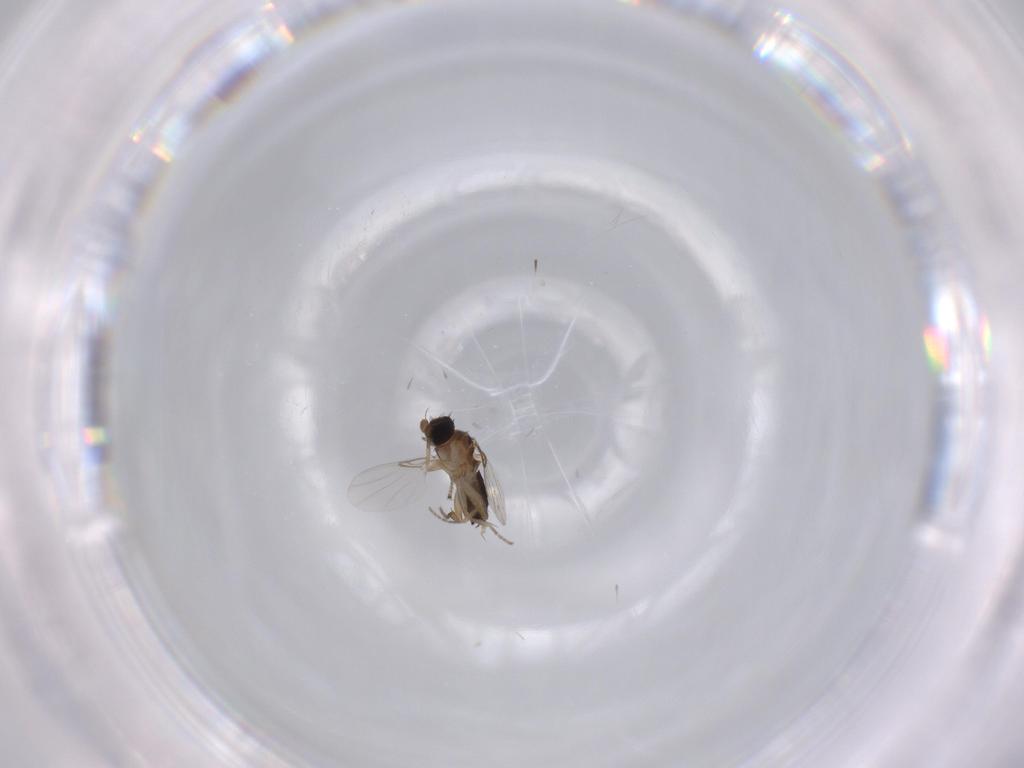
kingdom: Animalia
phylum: Arthropoda
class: Insecta
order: Diptera
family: Phoridae
